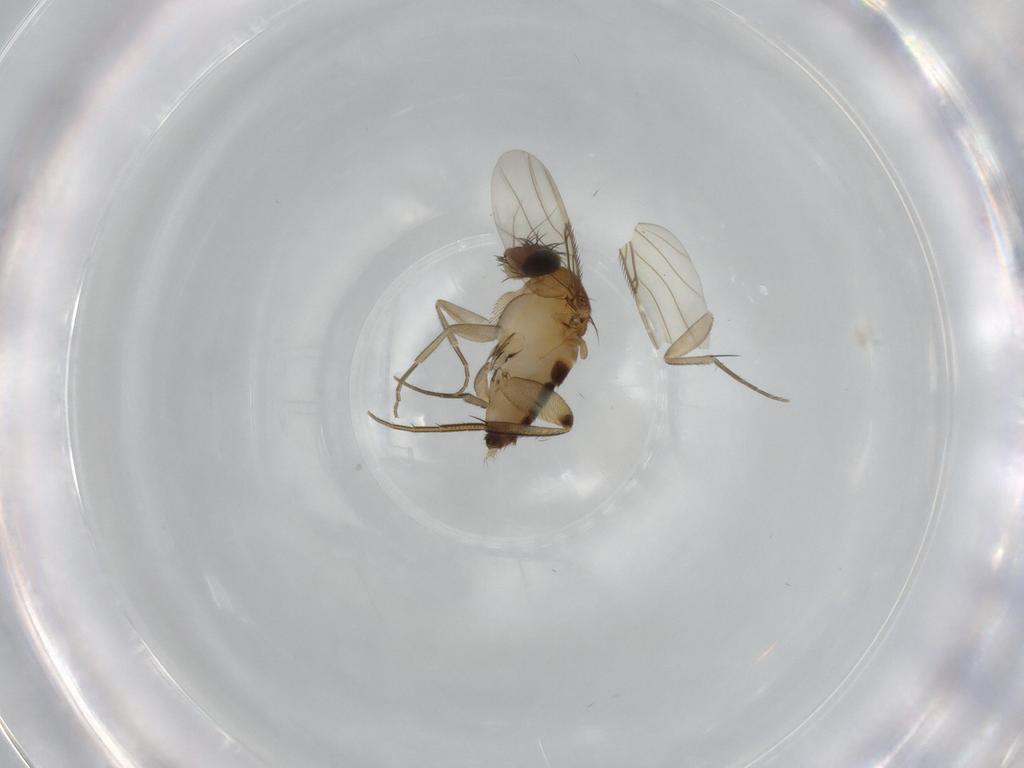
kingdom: Animalia
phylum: Arthropoda
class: Insecta
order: Diptera
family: Phoridae
